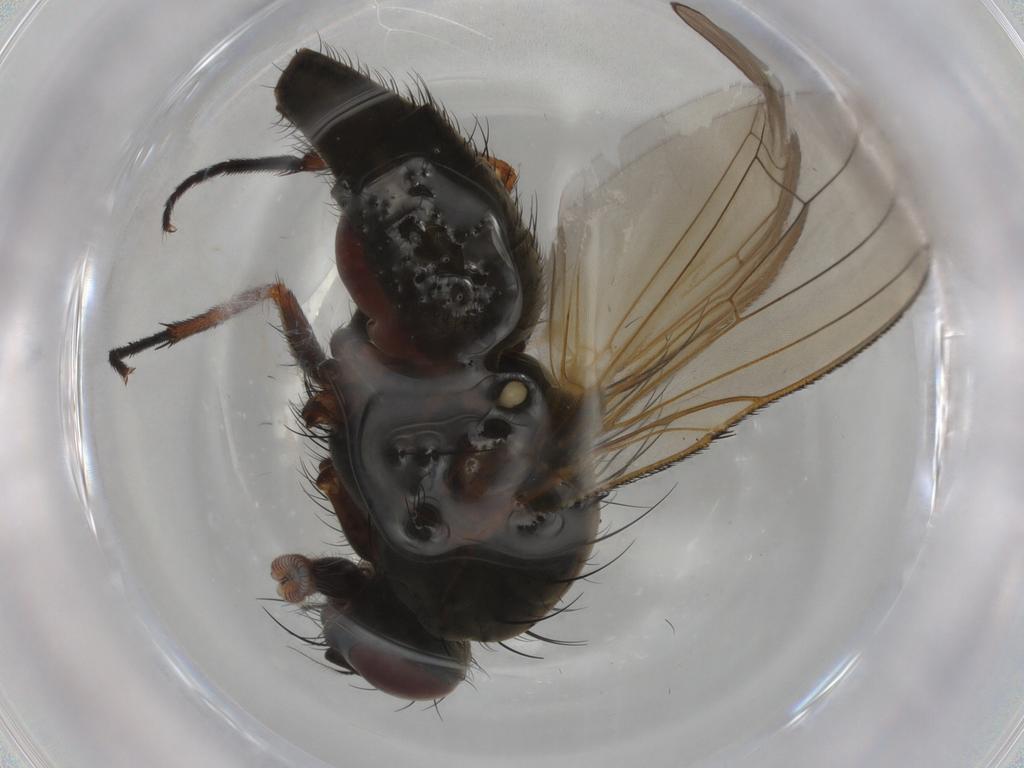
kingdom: Animalia
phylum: Arthropoda
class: Insecta
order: Diptera
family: Anthomyiidae
